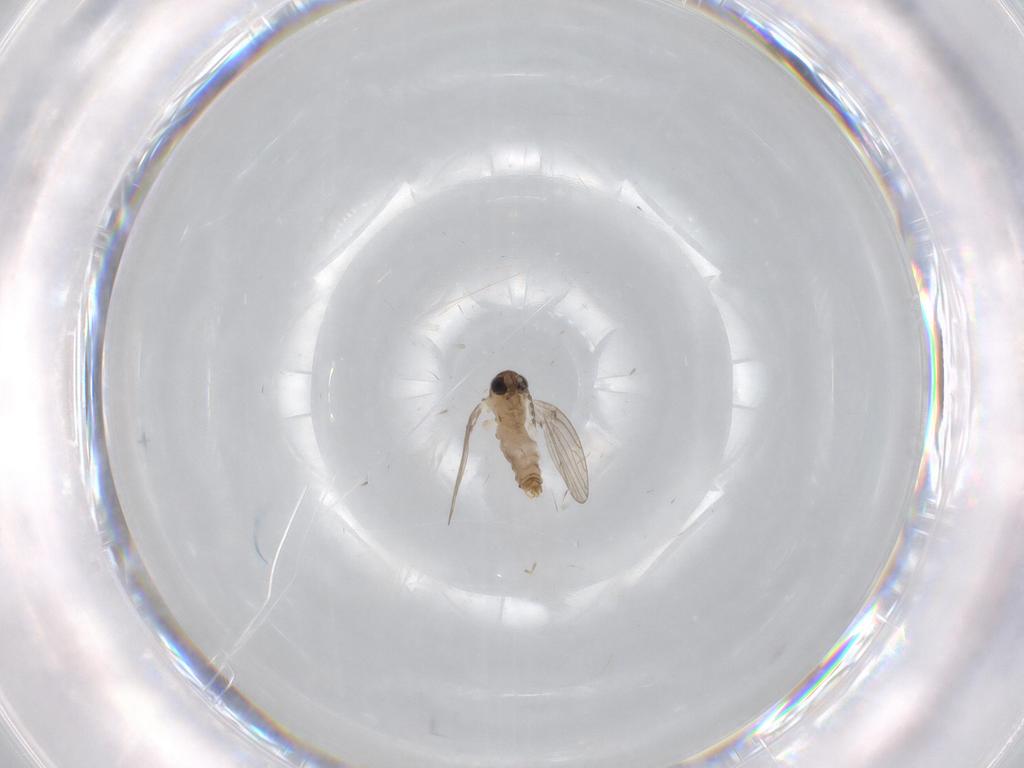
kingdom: Animalia
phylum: Arthropoda
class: Insecta
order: Diptera
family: Psychodidae
